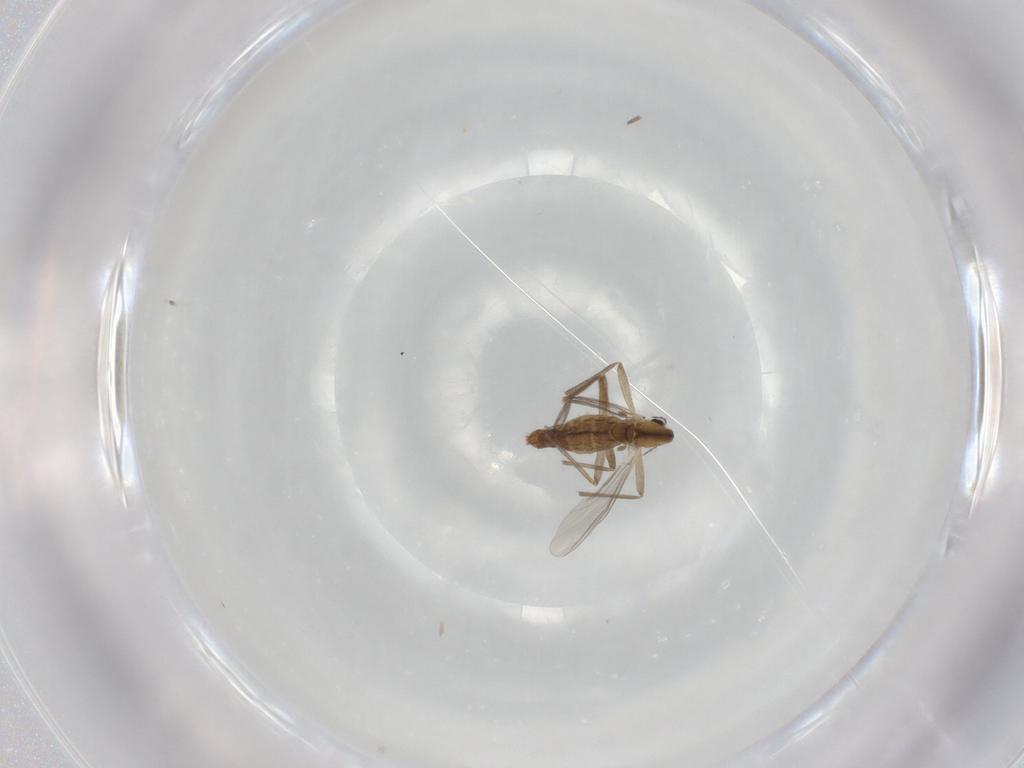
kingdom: Animalia
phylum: Arthropoda
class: Insecta
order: Diptera
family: Chironomidae
